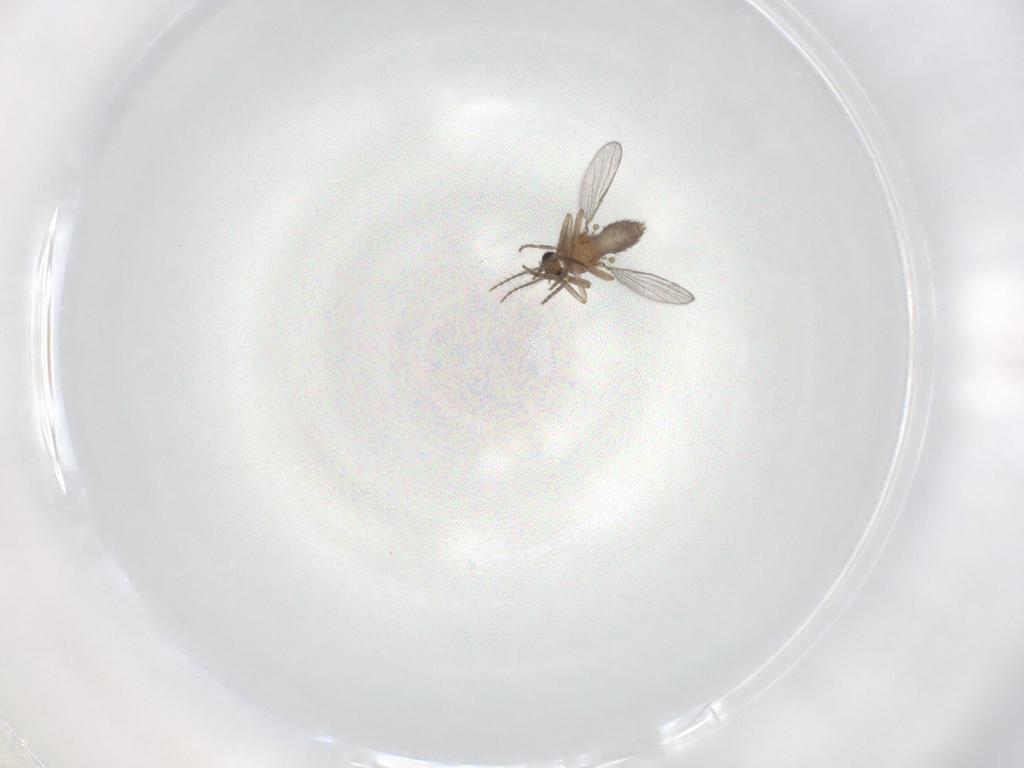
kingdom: Animalia
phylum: Arthropoda
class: Insecta
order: Diptera
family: Ceratopogonidae
